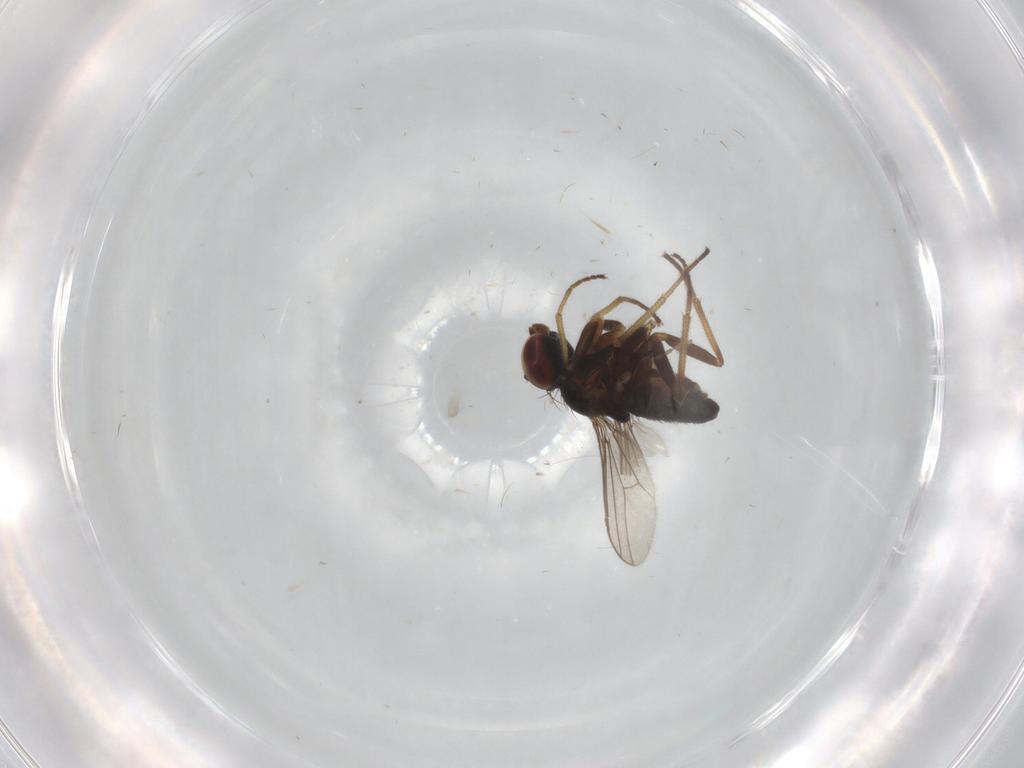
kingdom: Animalia
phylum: Arthropoda
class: Insecta
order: Diptera
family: Dolichopodidae
